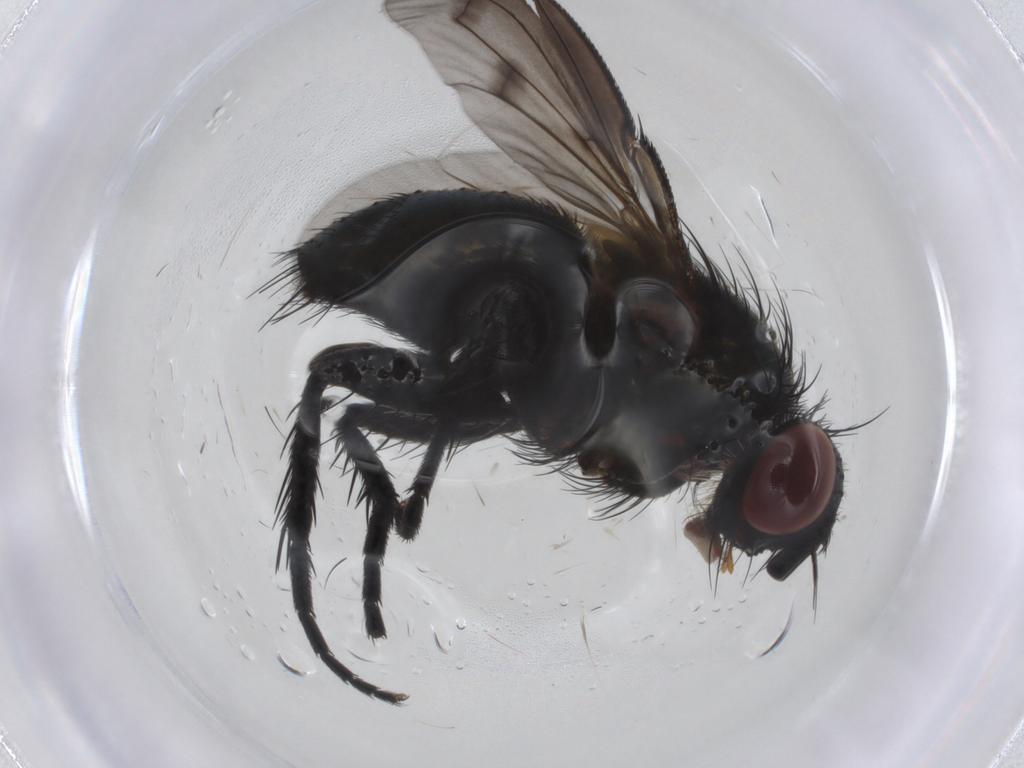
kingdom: Animalia
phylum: Arthropoda
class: Insecta
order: Diptera
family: Tachinidae
